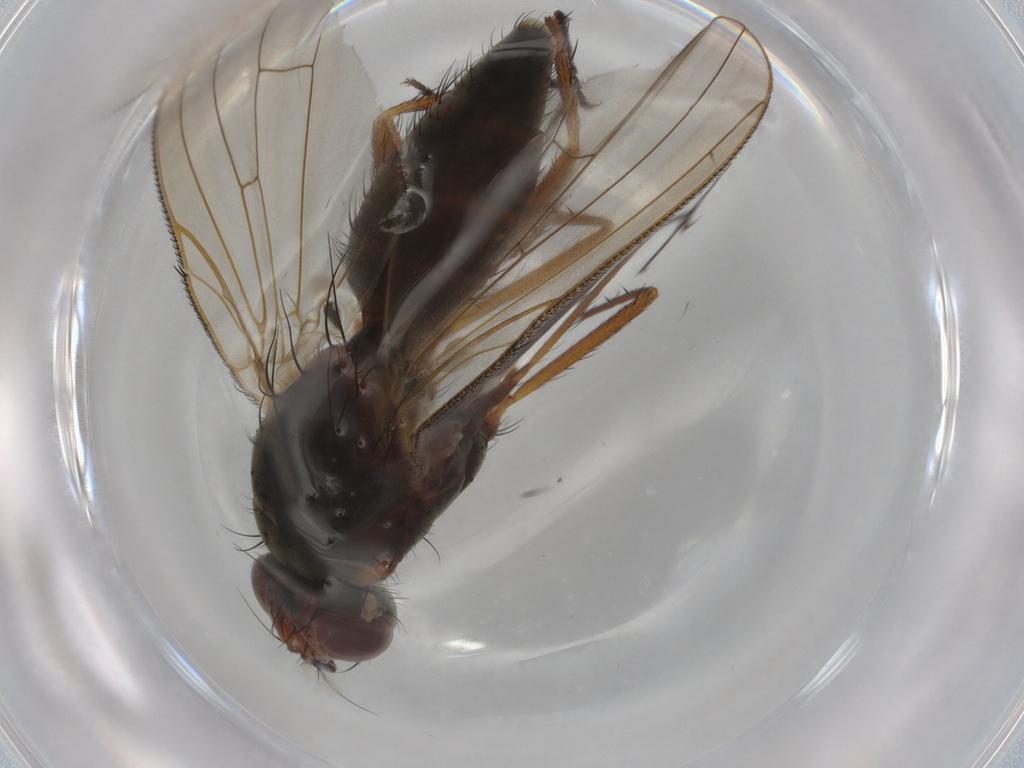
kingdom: Animalia
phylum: Arthropoda
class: Insecta
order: Diptera
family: Anthomyiidae
